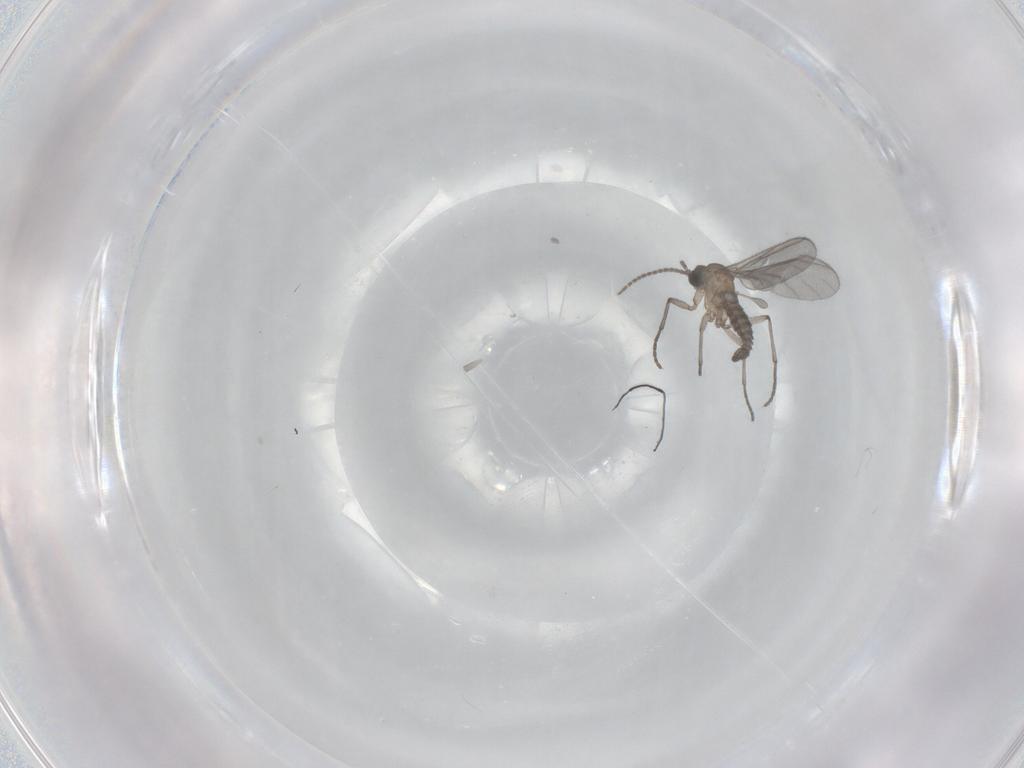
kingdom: Animalia
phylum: Arthropoda
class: Insecta
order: Diptera
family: Sciaridae
